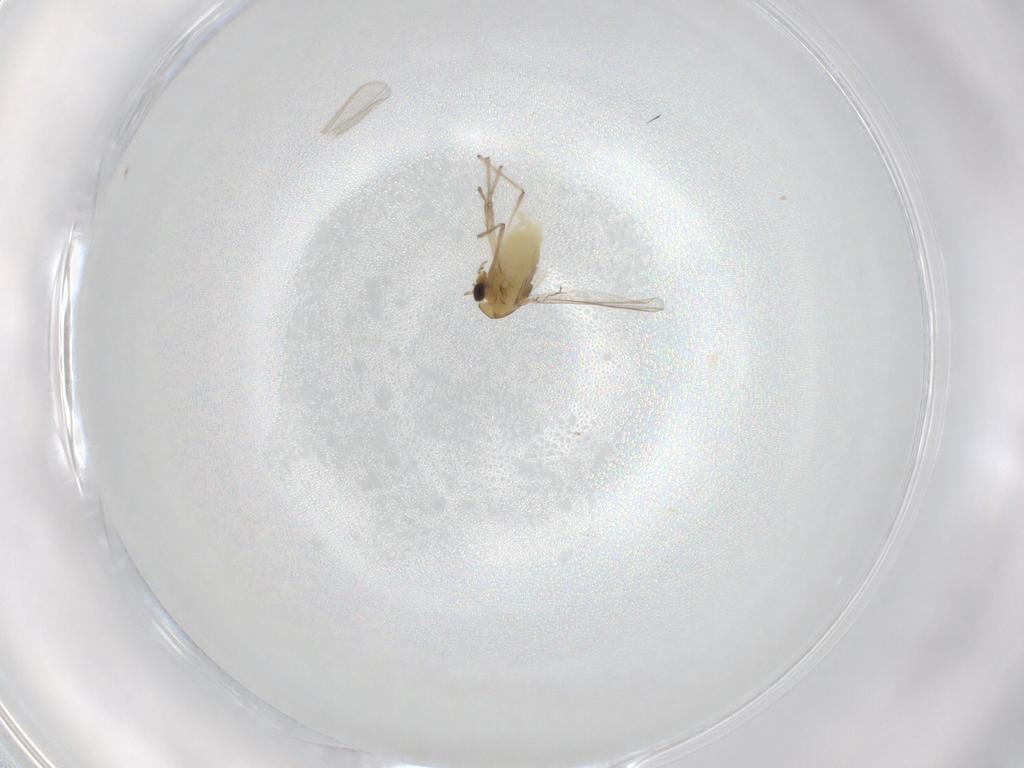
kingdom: Animalia
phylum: Arthropoda
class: Insecta
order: Diptera
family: Chironomidae
